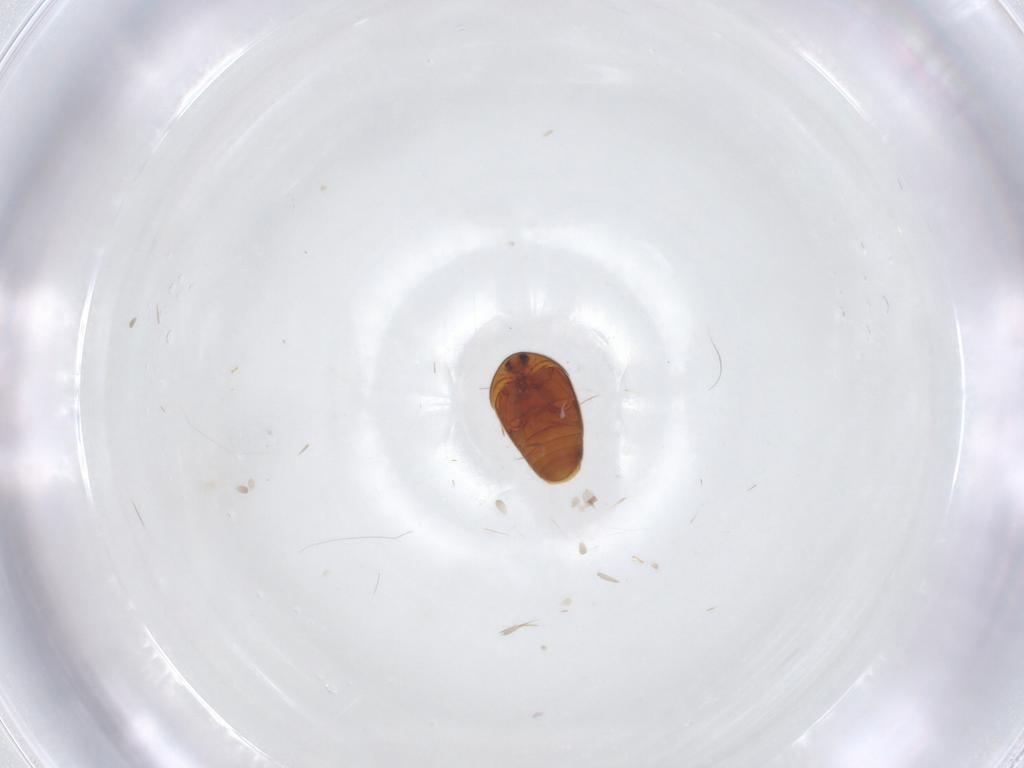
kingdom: Animalia
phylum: Arthropoda
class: Insecta
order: Coleoptera
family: Corylophidae
